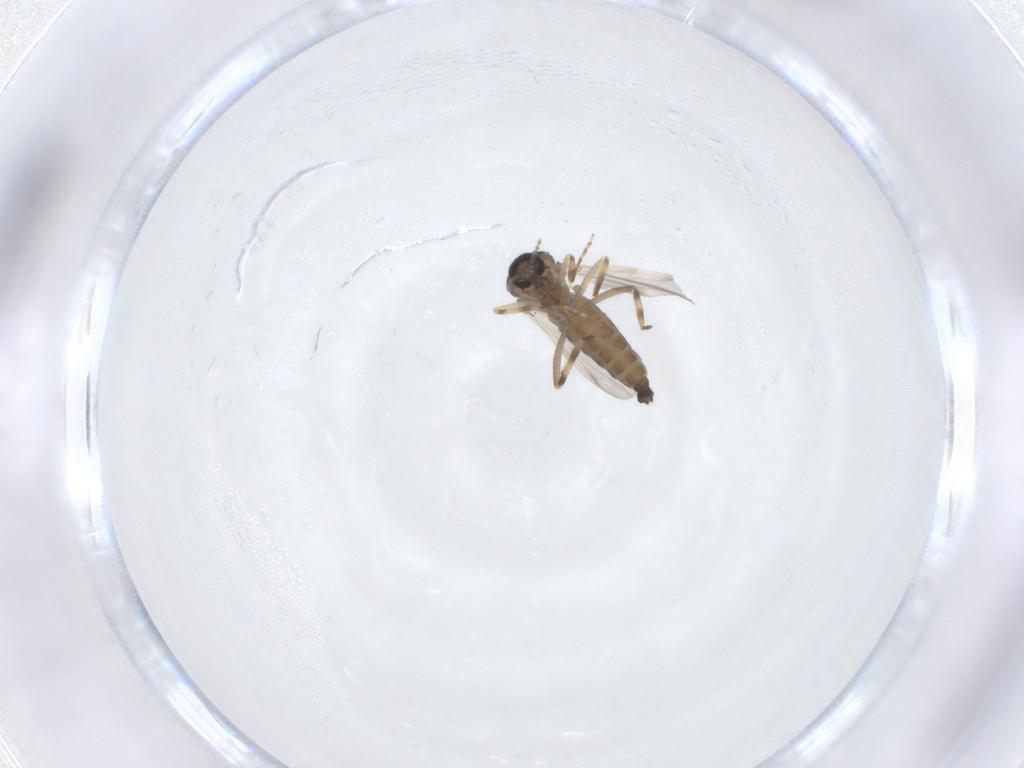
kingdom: Animalia
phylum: Arthropoda
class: Insecta
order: Diptera
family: Ceratopogonidae
